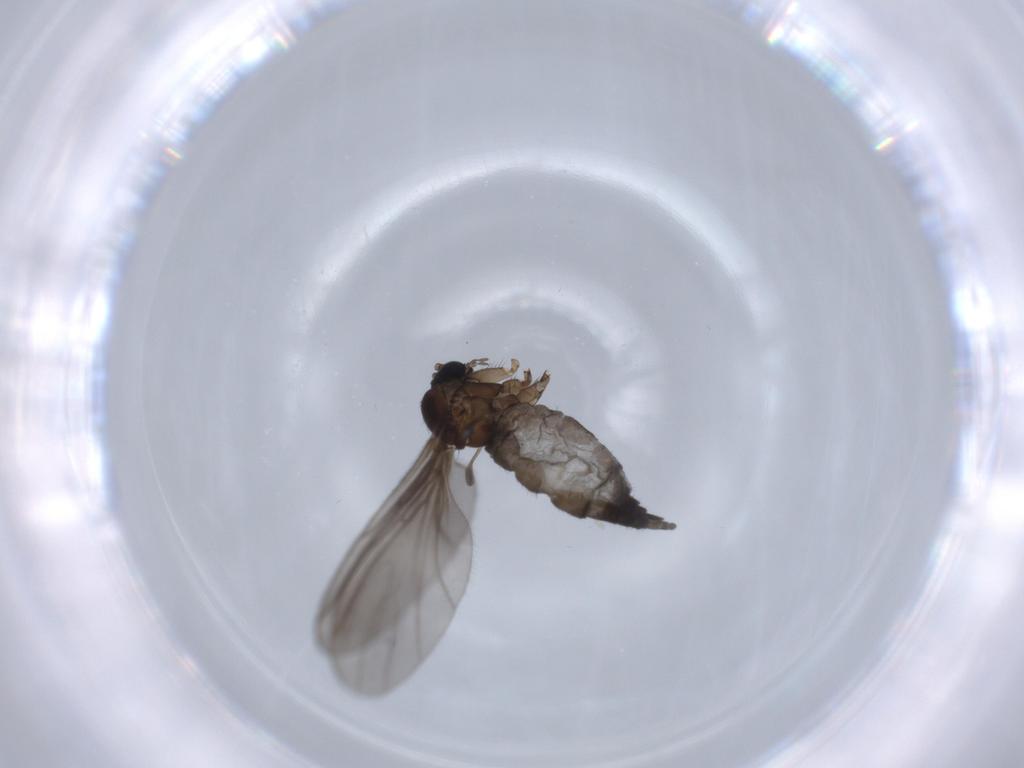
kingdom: Animalia
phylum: Arthropoda
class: Insecta
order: Diptera
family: Sciaridae
